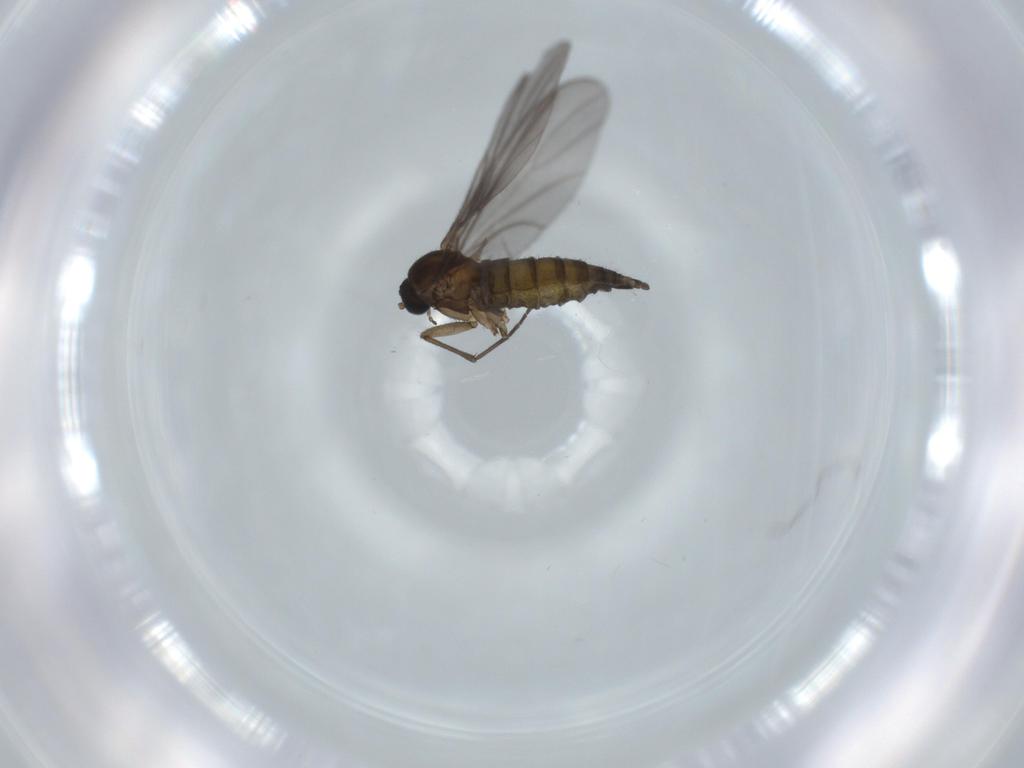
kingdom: Animalia
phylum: Arthropoda
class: Insecta
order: Diptera
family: Sciaridae
